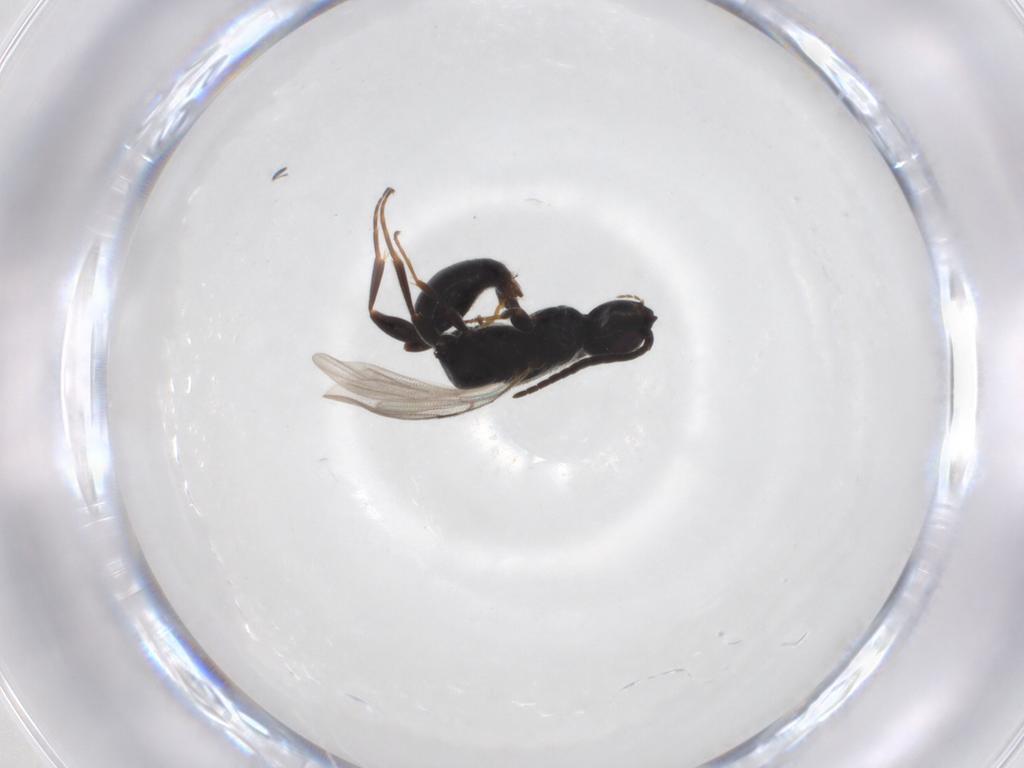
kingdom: Animalia
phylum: Arthropoda
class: Insecta
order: Hymenoptera
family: Bethylidae
